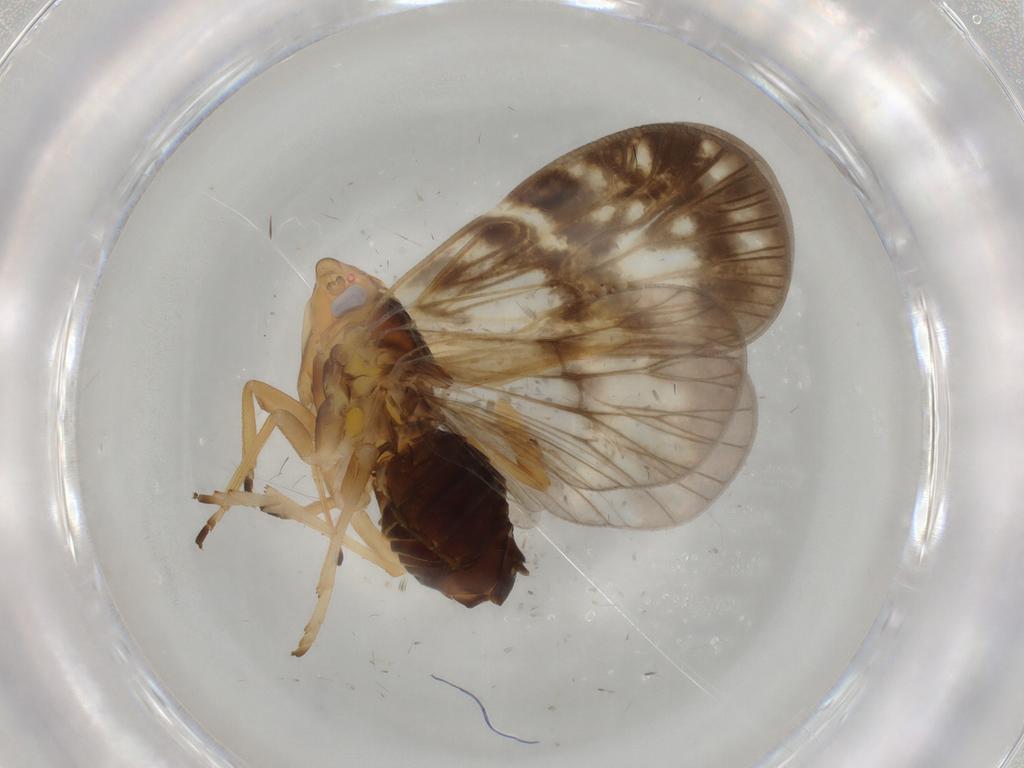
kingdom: Animalia
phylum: Arthropoda
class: Insecta
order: Hemiptera
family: Cixiidae
